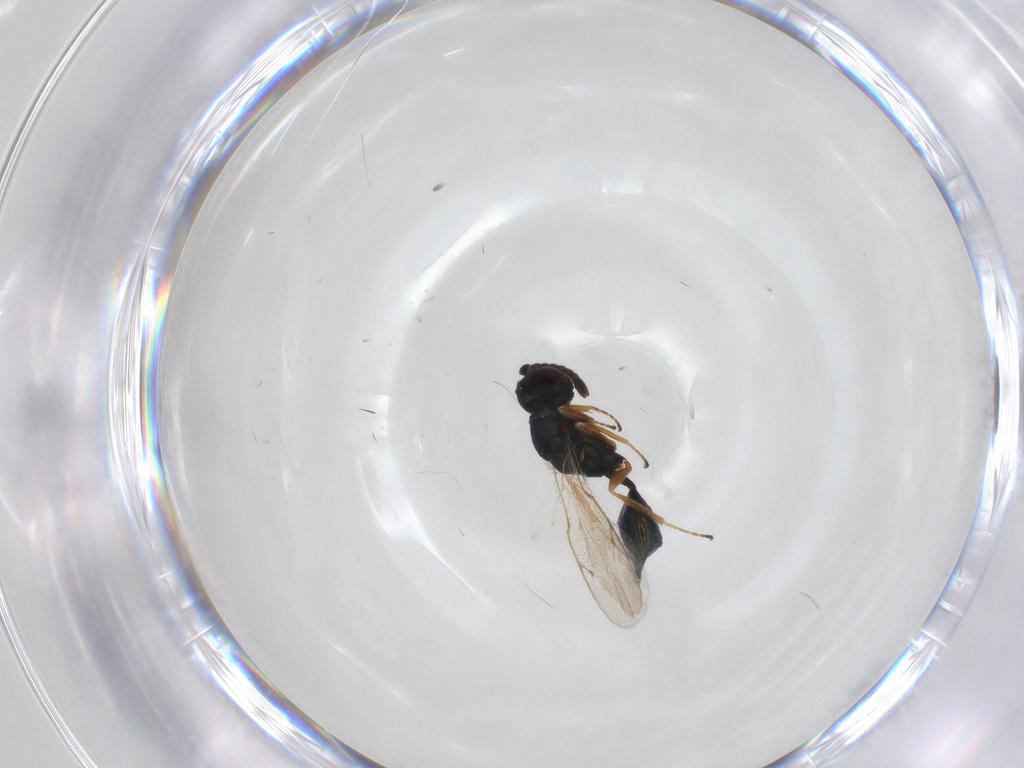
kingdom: Animalia
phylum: Arthropoda
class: Insecta
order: Hymenoptera
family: Pteromalidae
